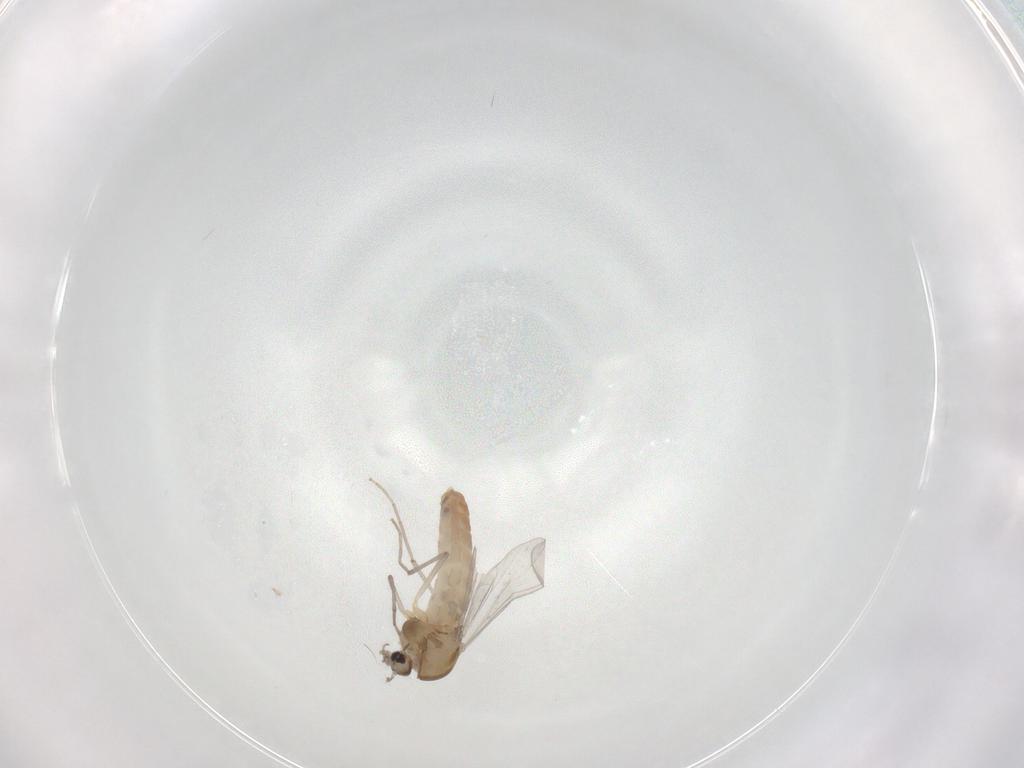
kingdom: Animalia
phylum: Arthropoda
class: Insecta
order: Diptera
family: Chironomidae
